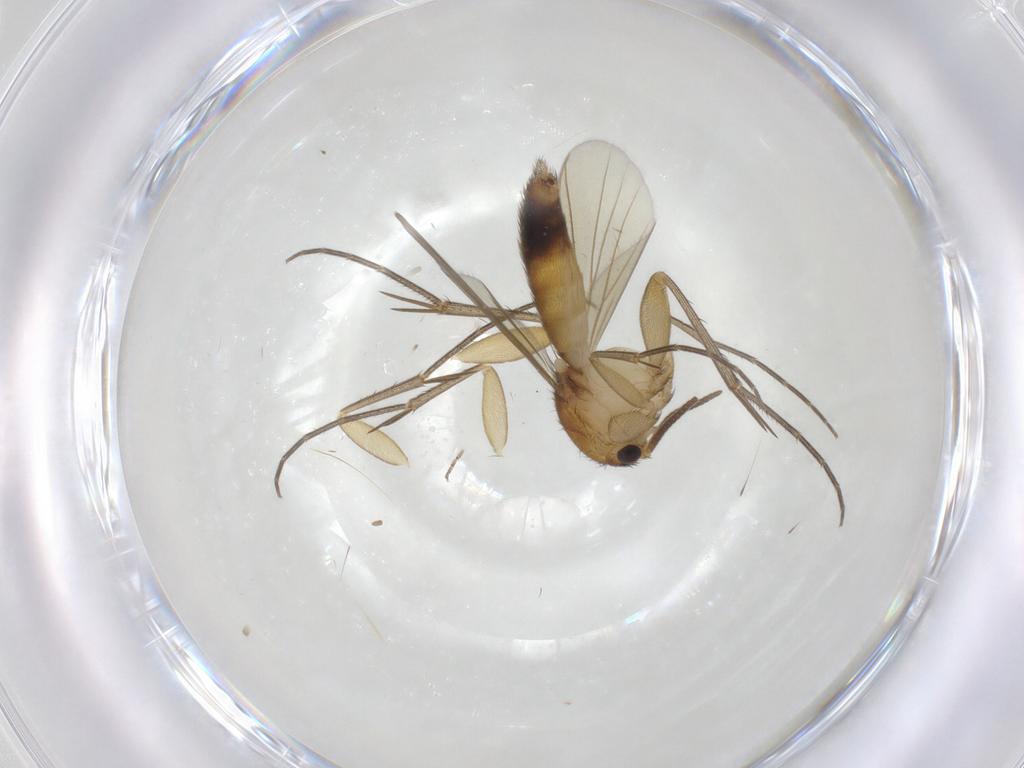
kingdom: Animalia
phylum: Arthropoda
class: Insecta
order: Diptera
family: Mycetophilidae
